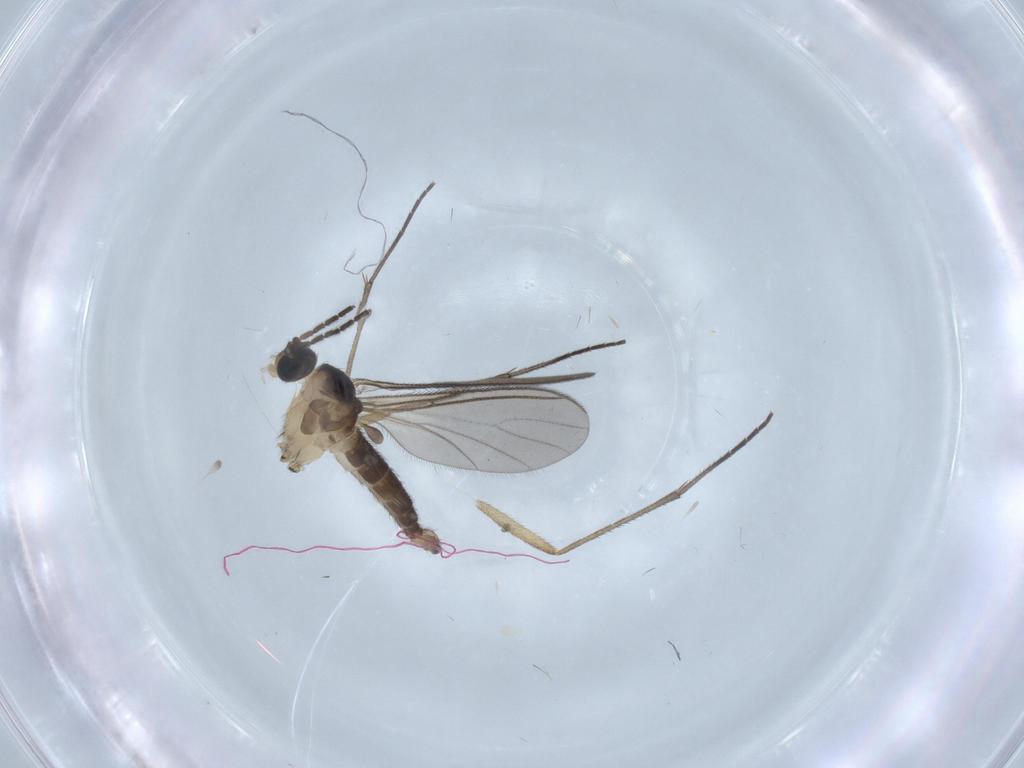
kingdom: Animalia
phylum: Arthropoda
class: Insecta
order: Diptera
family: Chironomidae
